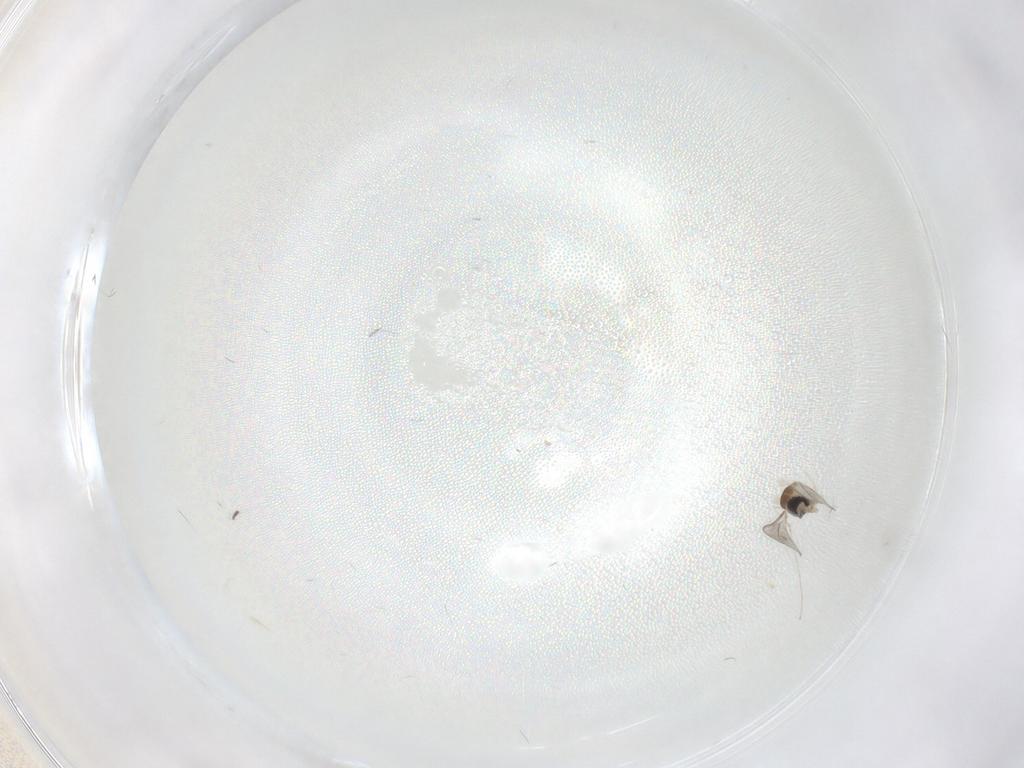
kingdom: Animalia
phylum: Arthropoda
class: Insecta
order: Diptera
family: Cecidomyiidae
